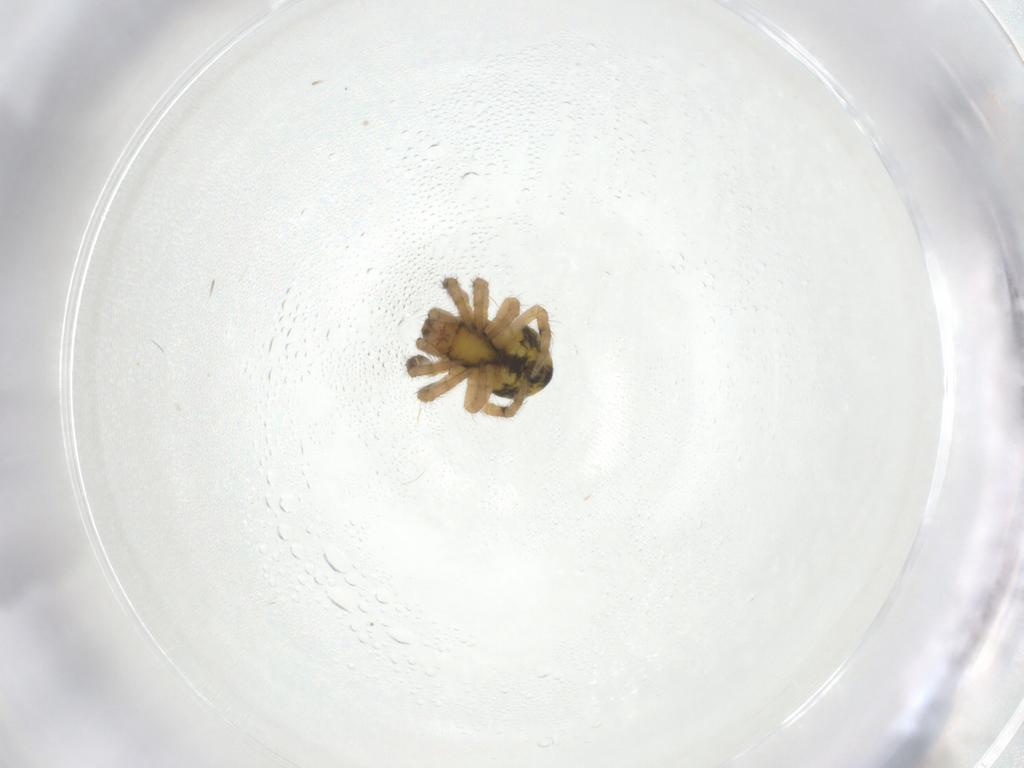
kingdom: Animalia
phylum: Arthropoda
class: Arachnida
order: Araneae
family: Araneidae
